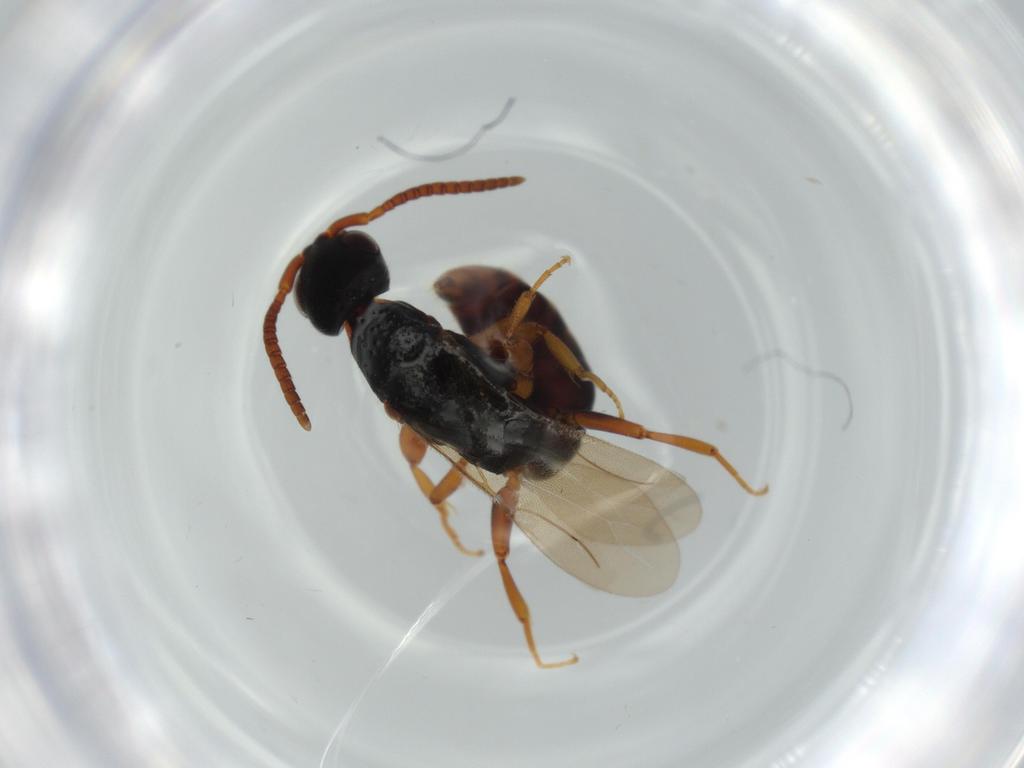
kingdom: Animalia
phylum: Arthropoda
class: Insecta
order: Hymenoptera
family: Bethylidae
